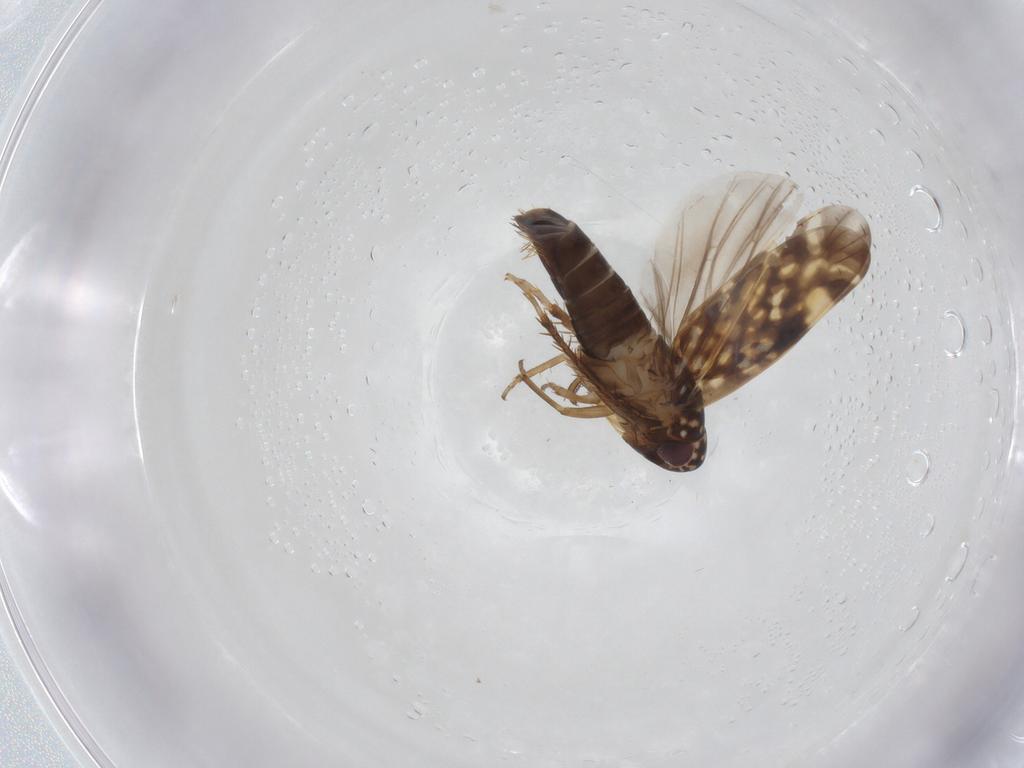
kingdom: Animalia
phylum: Arthropoda
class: Insecta
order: Hemiptera
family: Cicadellidae
